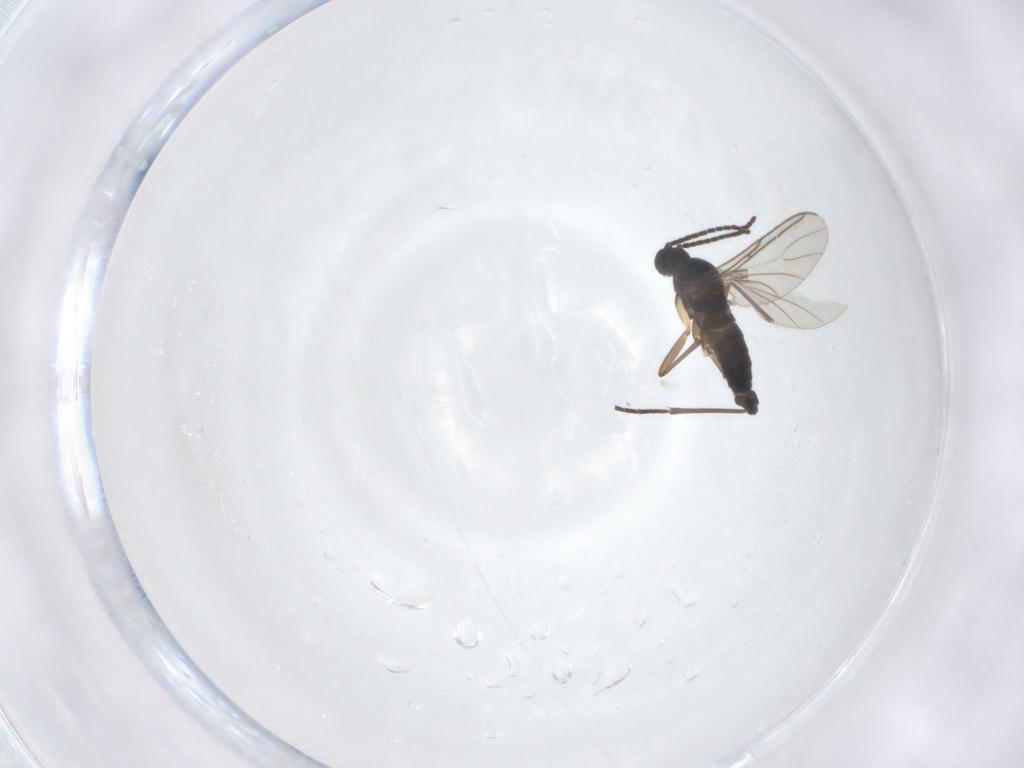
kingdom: Animalia
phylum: Arthropoda
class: Insecta
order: Diptera
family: Sciaridae
